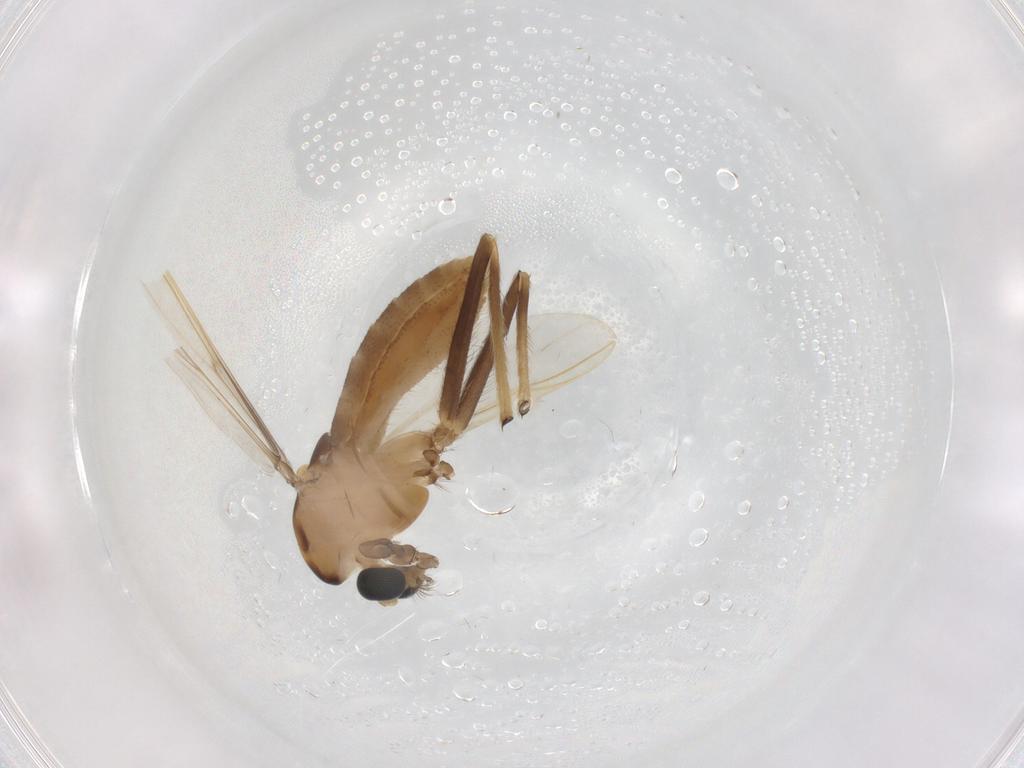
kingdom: Animalia
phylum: Arthropoda
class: Insecta
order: Diptera
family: Chironomidae
